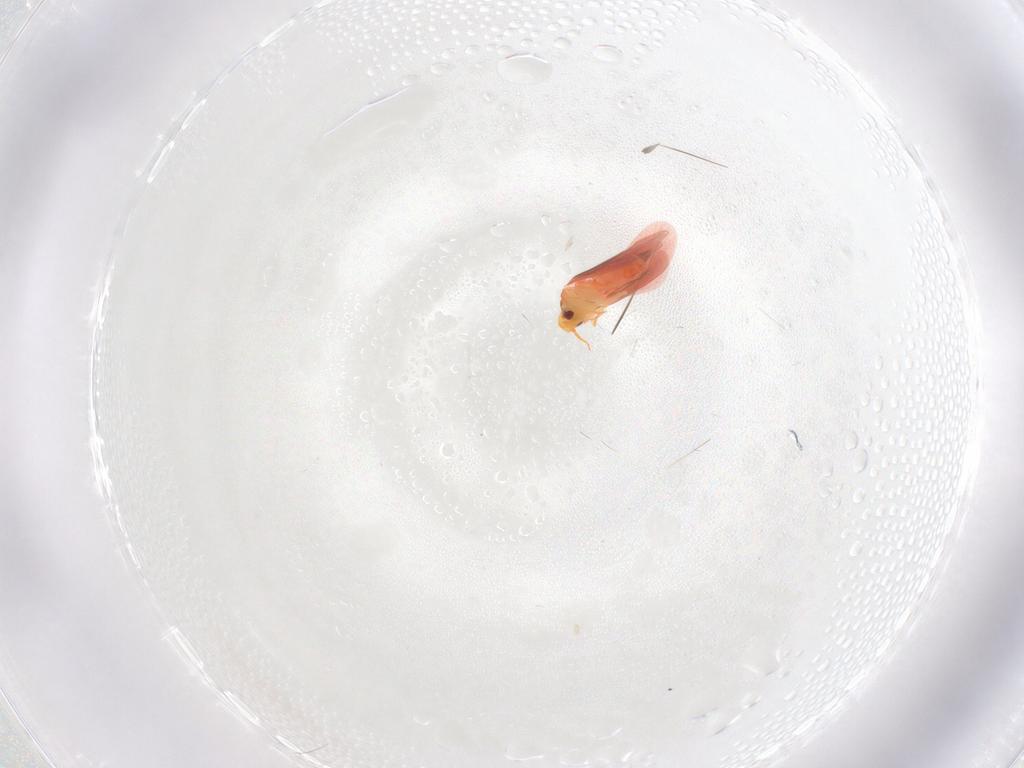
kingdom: Animalia
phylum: Arthropoda
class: Insecta
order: Hemiptera
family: Aleyrodidae
